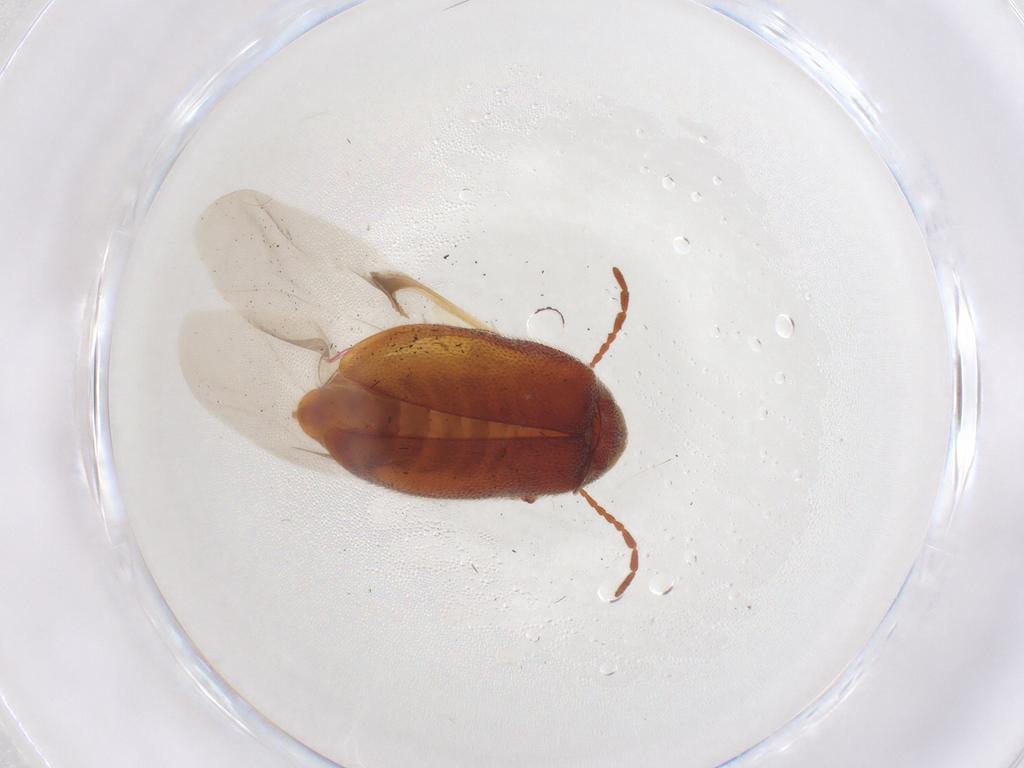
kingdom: Animalia
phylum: Arthropoda
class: Insecta
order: Coleoptera
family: Ptinidae
